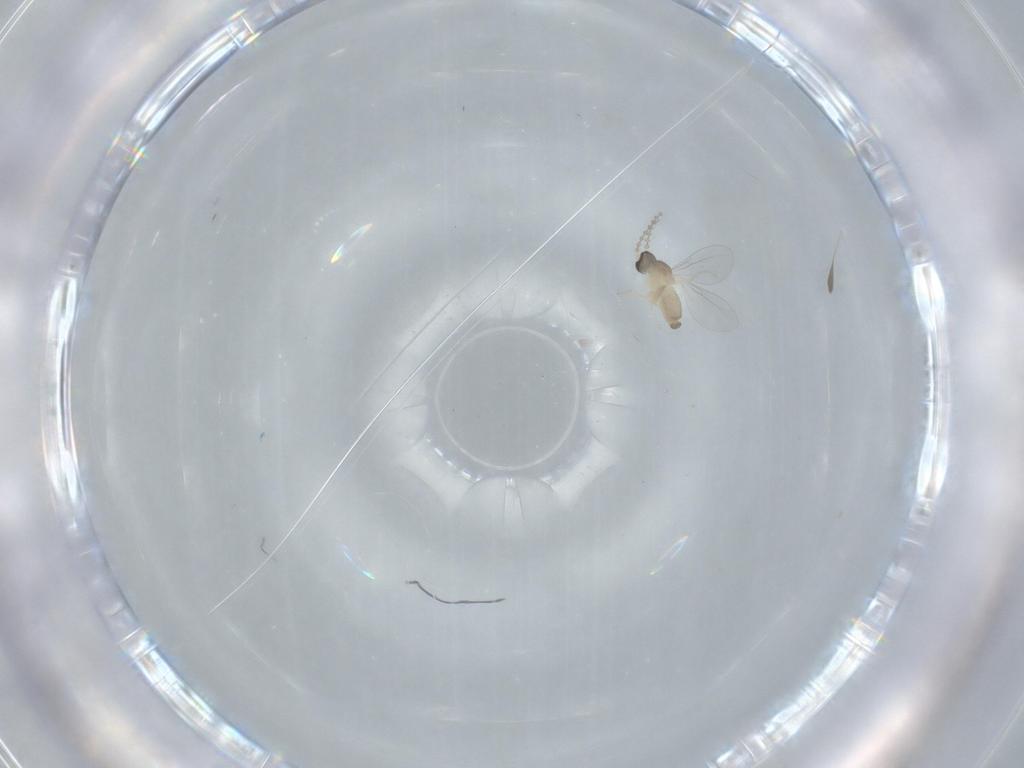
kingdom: Animalia
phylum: Arthropoda
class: Insecta
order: Diptera
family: Cecidomyiidae
